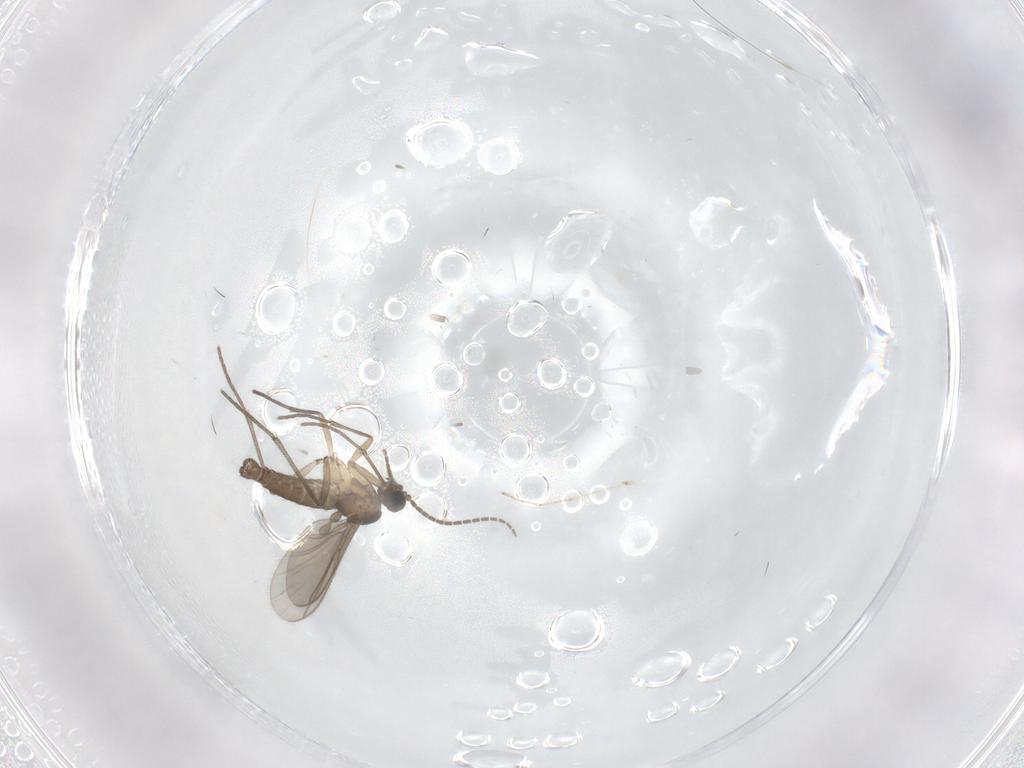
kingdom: Animalia
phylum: Arthropoda
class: Insecta
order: Diptera
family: Sciaridae
